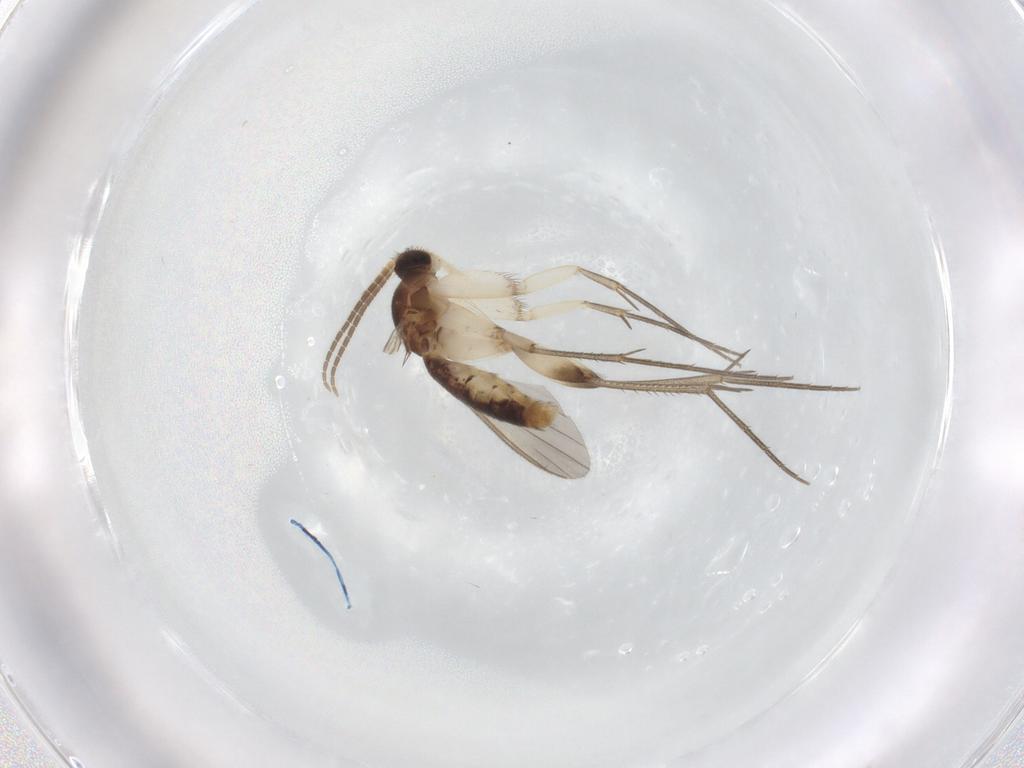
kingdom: Animalia
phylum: Arthropoda
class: Insecta
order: Diptera
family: Mycetophilidae
